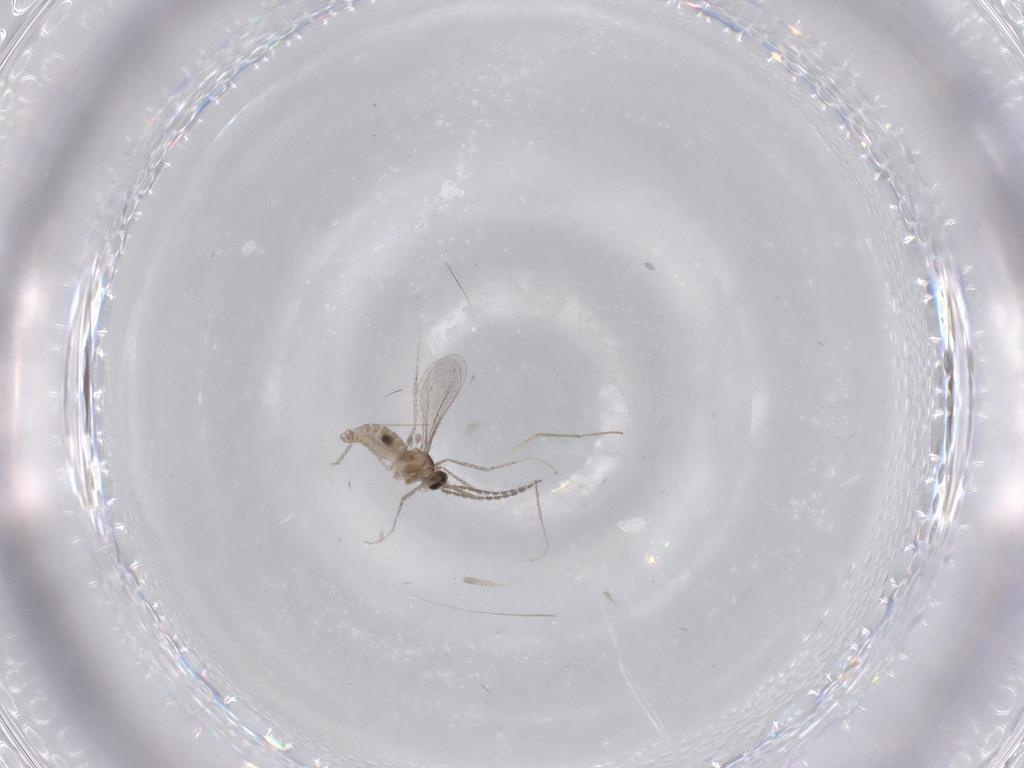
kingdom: Animalia
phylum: Arthropoda
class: Insecta
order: Diptera
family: Chironomidae
